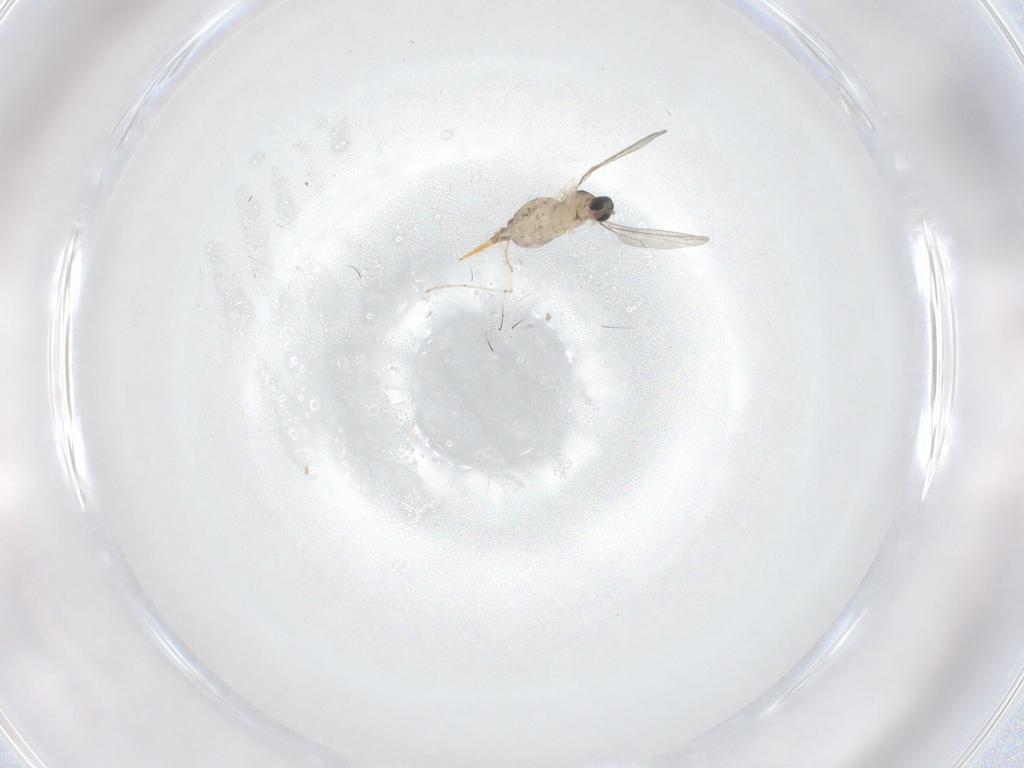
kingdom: Animalia
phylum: Arthropoda
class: Insecta
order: Diptera
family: Cecidomyiidae
